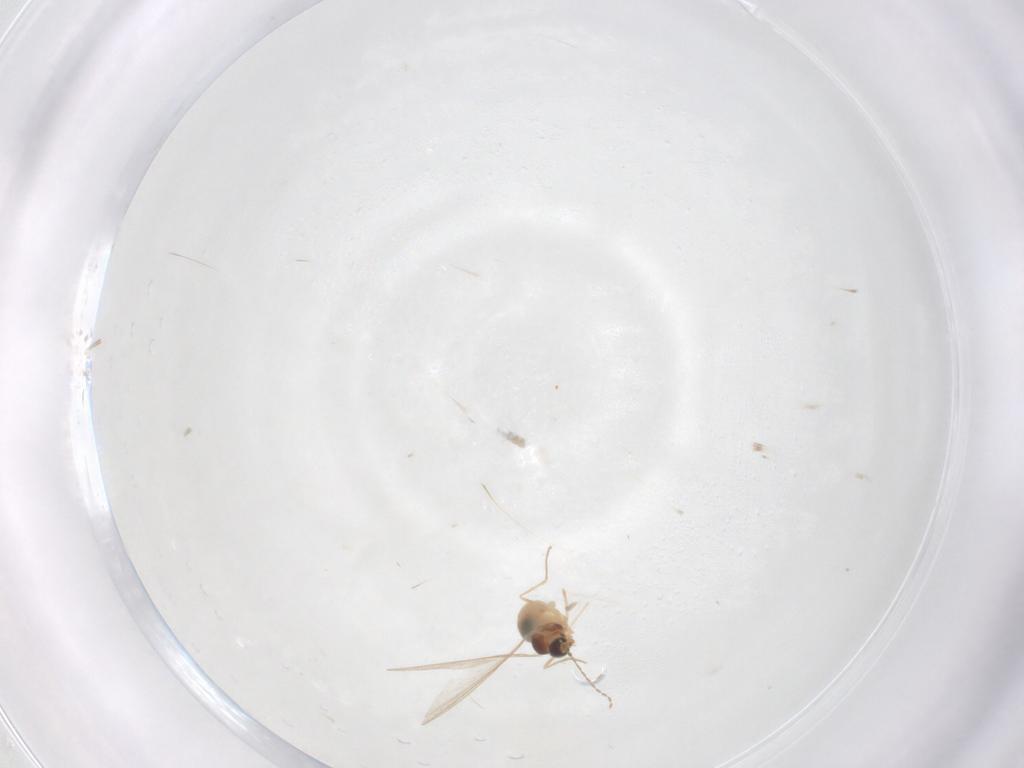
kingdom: Animalia
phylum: Arthropoda
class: Insecta
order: Diptera
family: Cecidomyiidae
